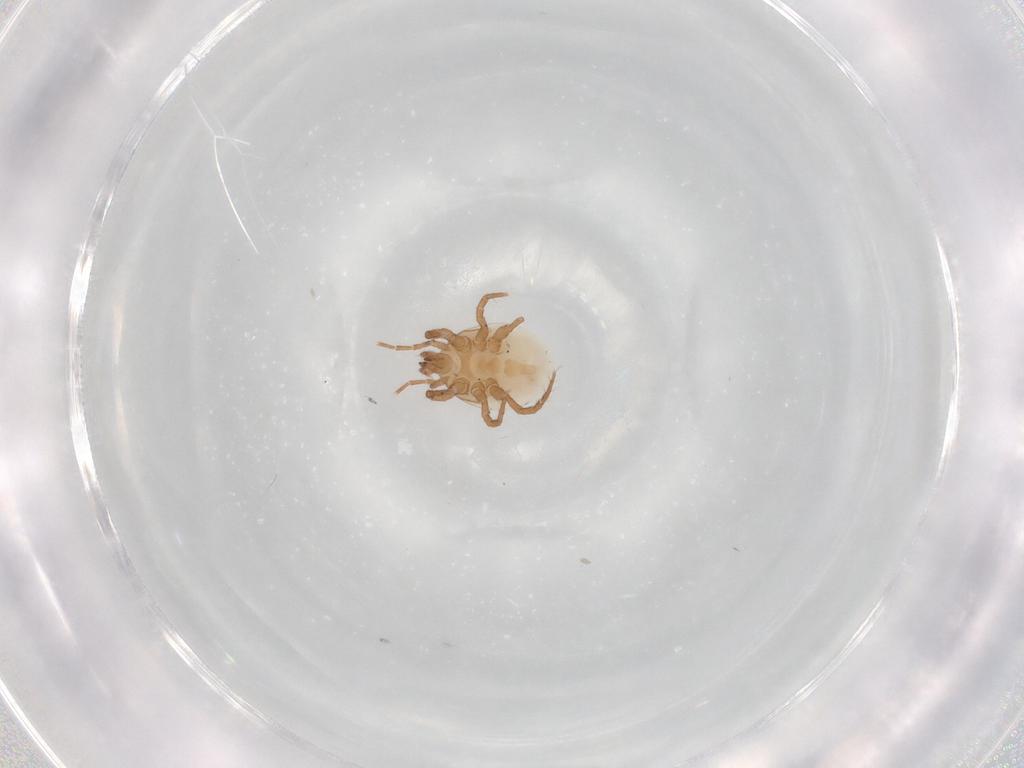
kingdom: Animalia
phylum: Arthropoda
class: Arachnida
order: Mesostigmata
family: Macrochelidae
